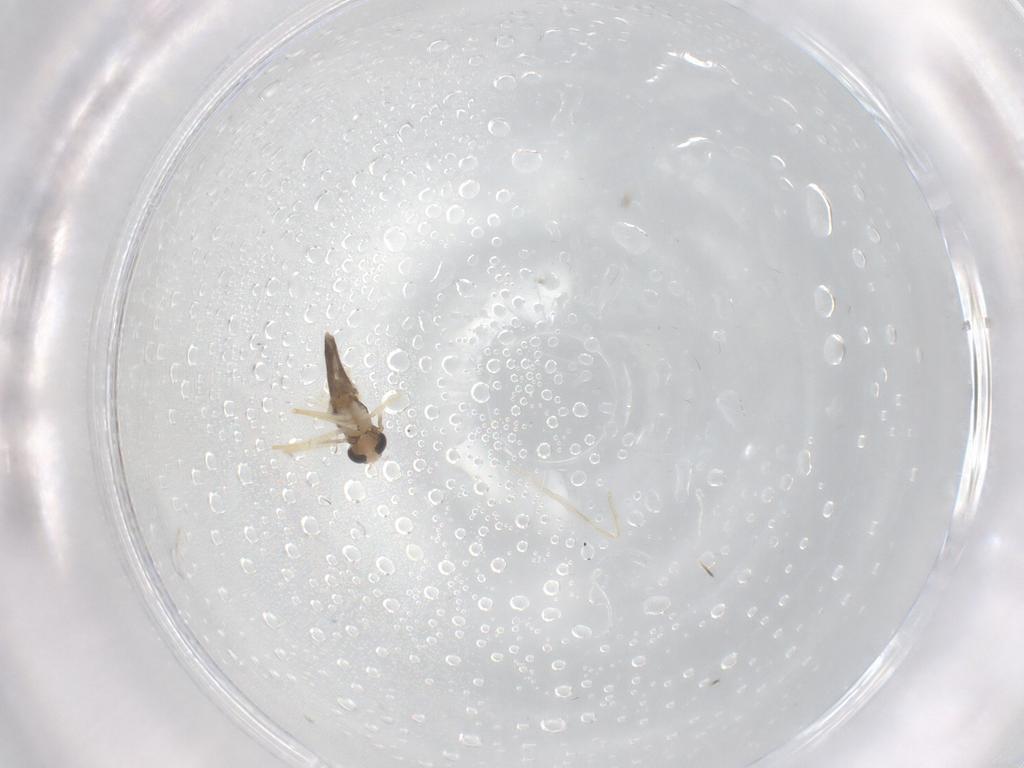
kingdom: Animalia
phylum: Arthropoda
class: Insecta
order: Diptera
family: Chironomidae
